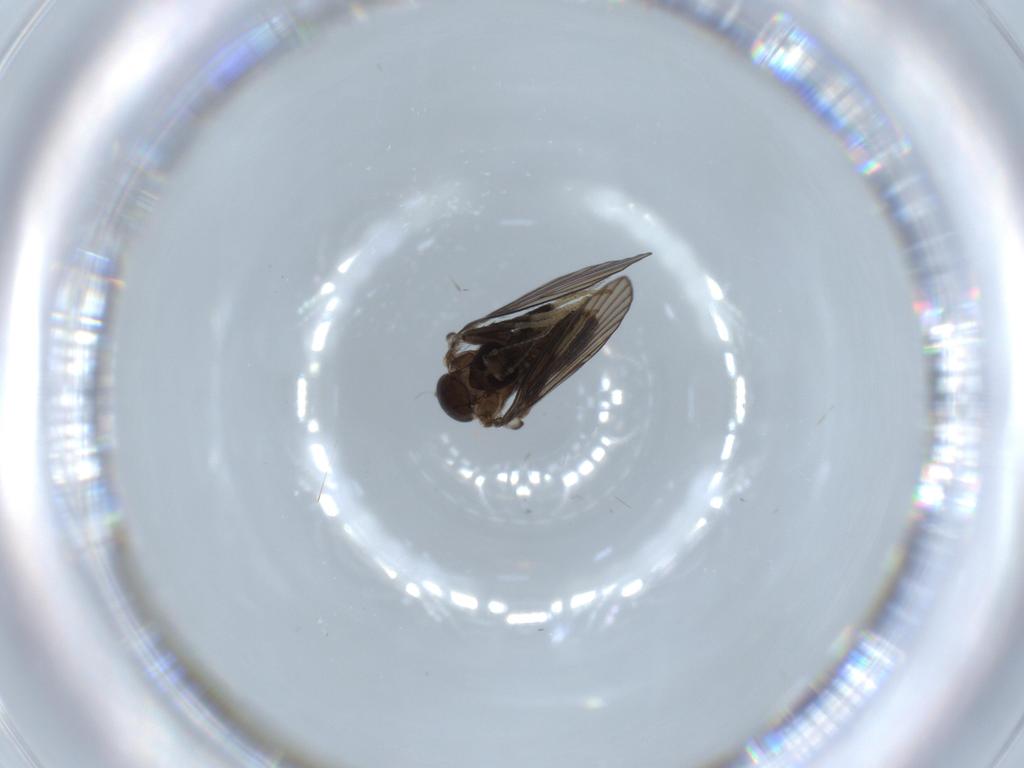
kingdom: Animalia
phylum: Arthropoda
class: Insecta
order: Diptera
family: Psychodidae
